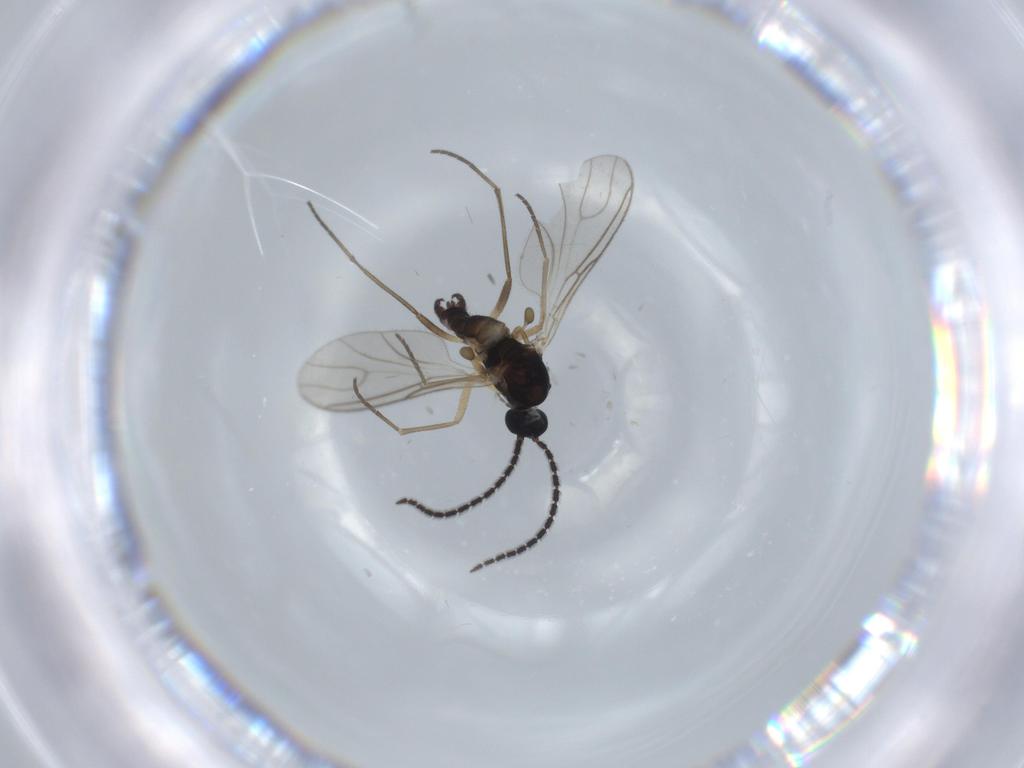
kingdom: Animalia
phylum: Arthropoda
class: Insecta
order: Diptera
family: Sciaridae
